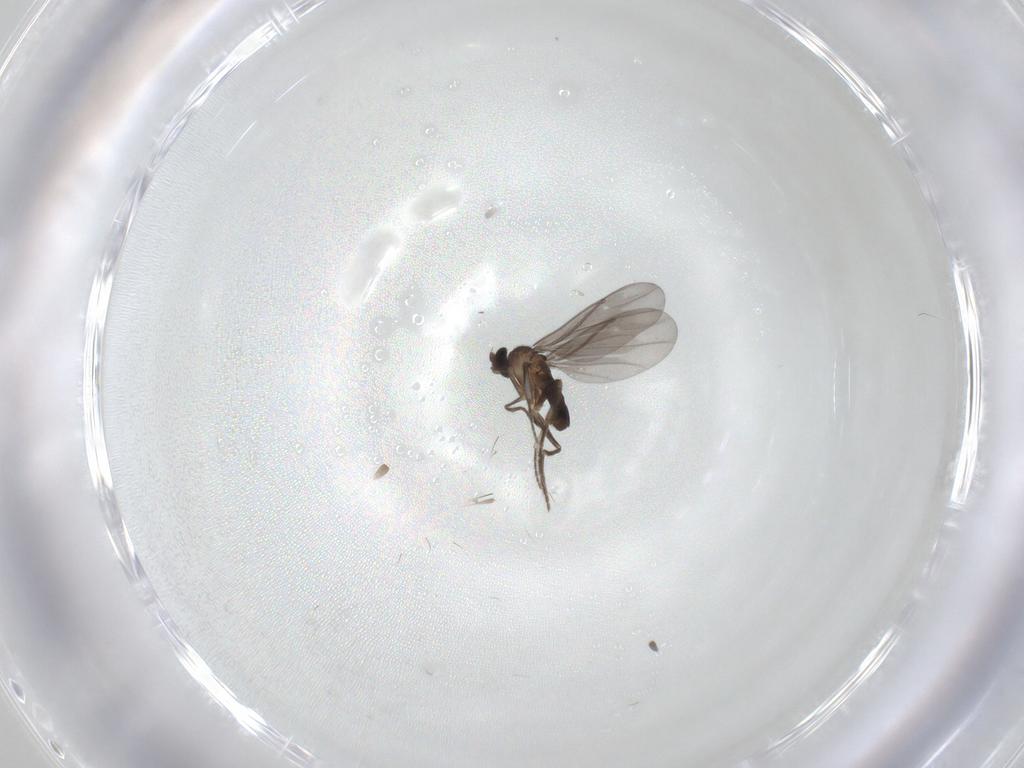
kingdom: Animalia
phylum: Arthropoda
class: Insecta
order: Diptera
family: Phoridae
